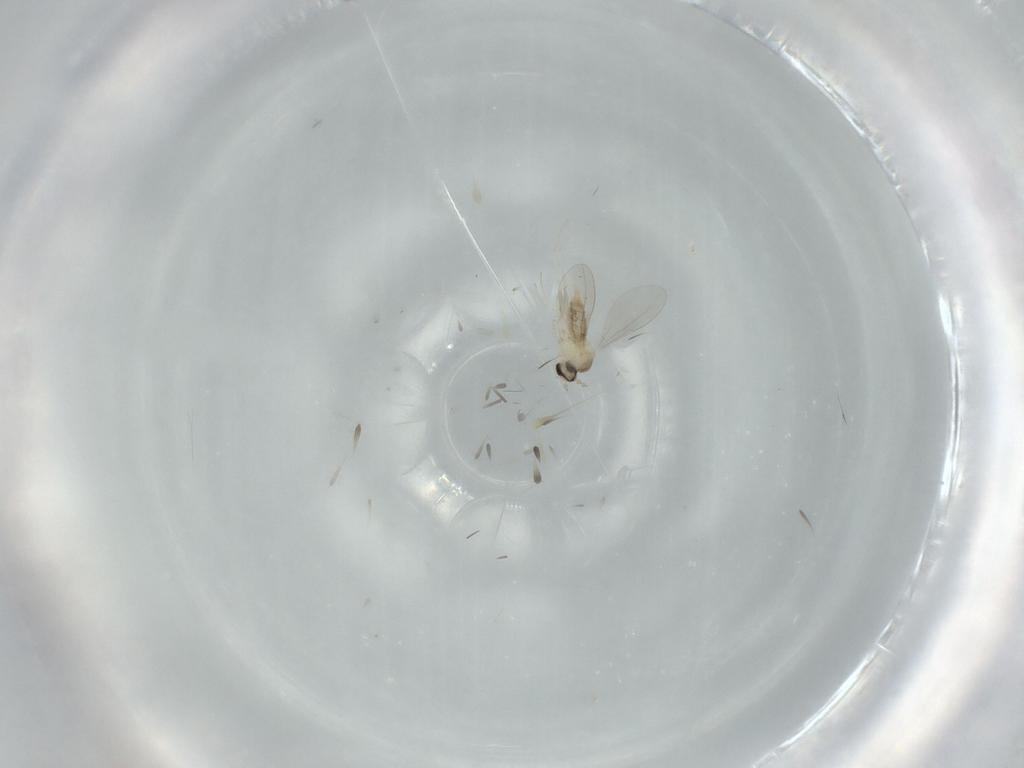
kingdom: Animalia
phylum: Arthropoda
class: Insecta
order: Diptera
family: Cecidomyiidae
